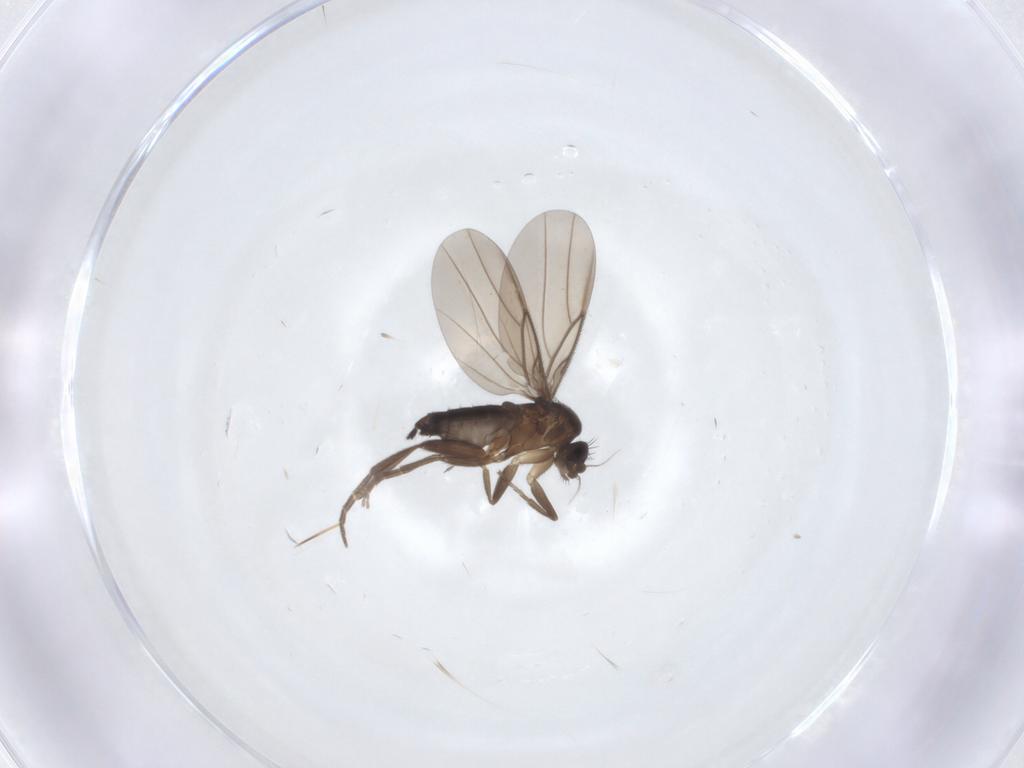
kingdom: Animalia
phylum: Arthropoda
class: Insecta
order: Diptera
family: Phoridae
